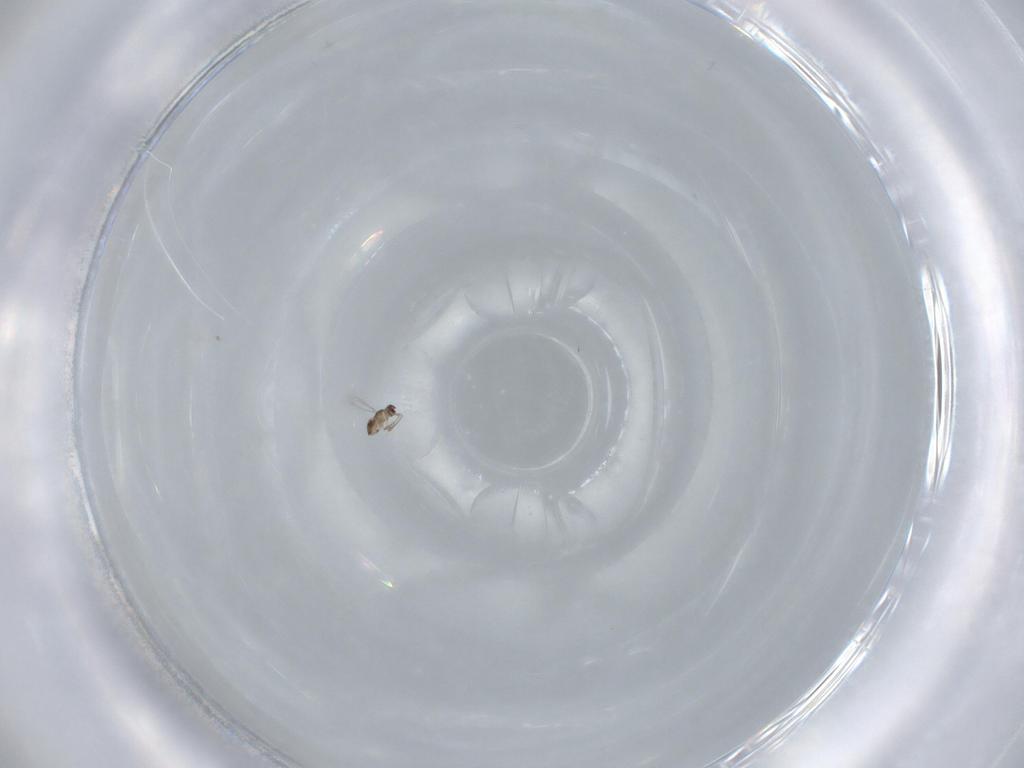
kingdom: Animalia
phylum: Arthropoda
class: Insecta
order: Hymenoptera
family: Mymaridae
